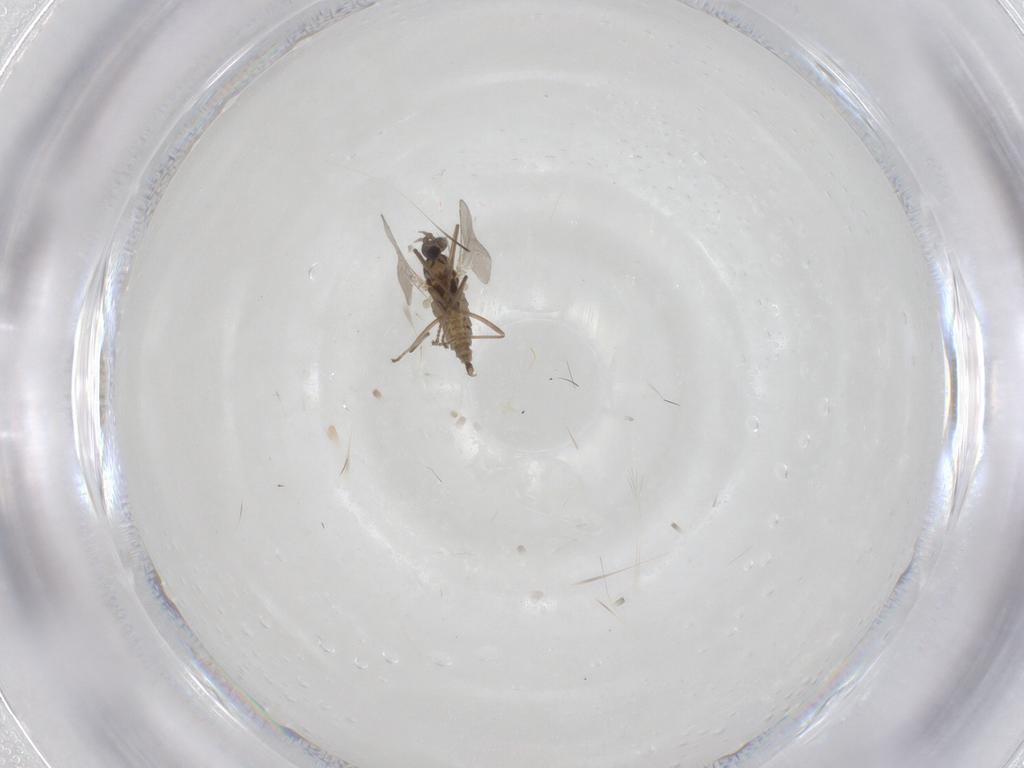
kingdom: Animalia
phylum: Arthropoda
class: Insecta
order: Diptera
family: Cecidomyiidae
